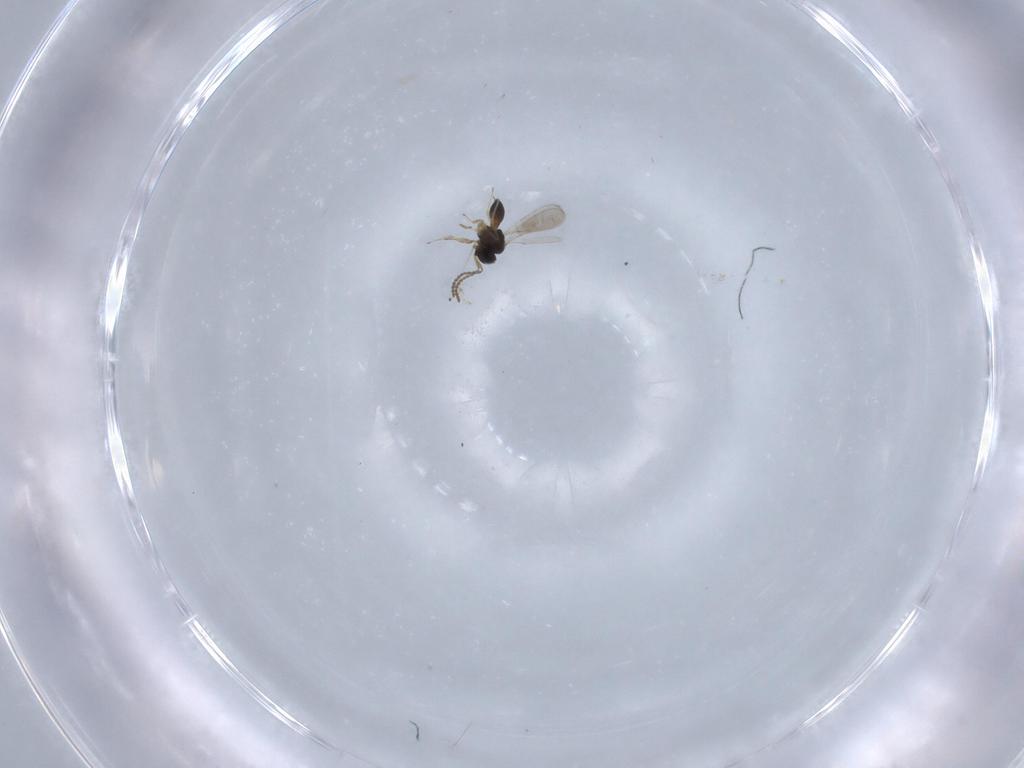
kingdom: Animalia
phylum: Arthropoda
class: Insecta
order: Hymenoptera
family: Scelionidae
